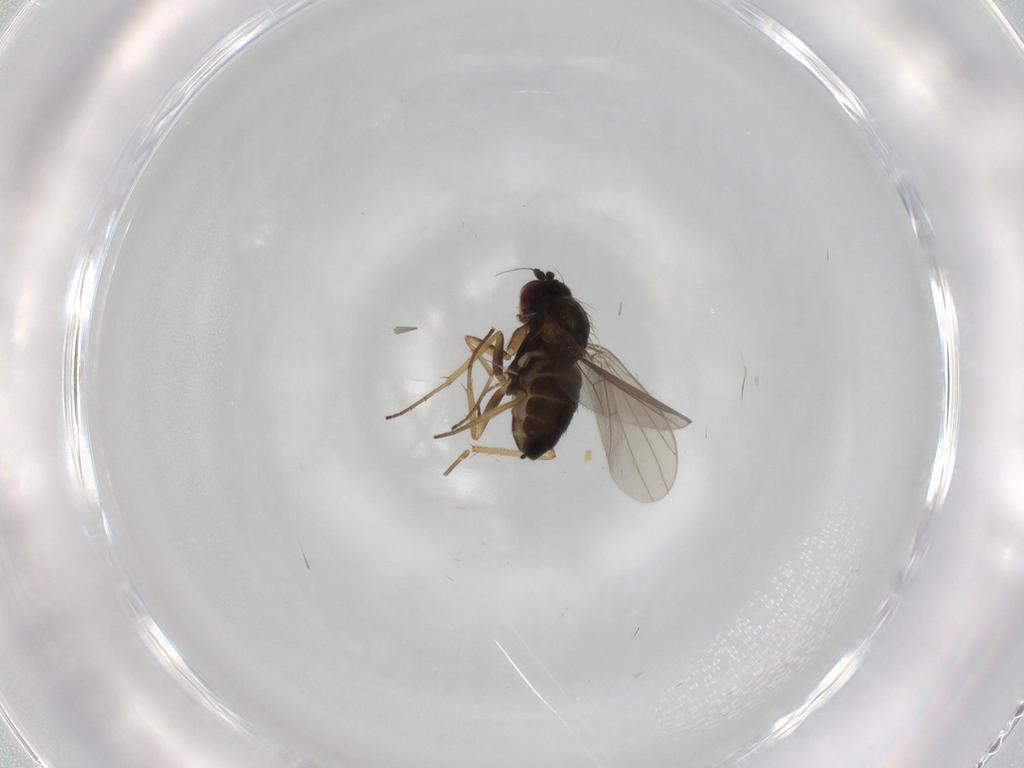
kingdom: Animalia
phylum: Arthropoda
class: Insecta
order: Diptera
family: Dolichopodidae
